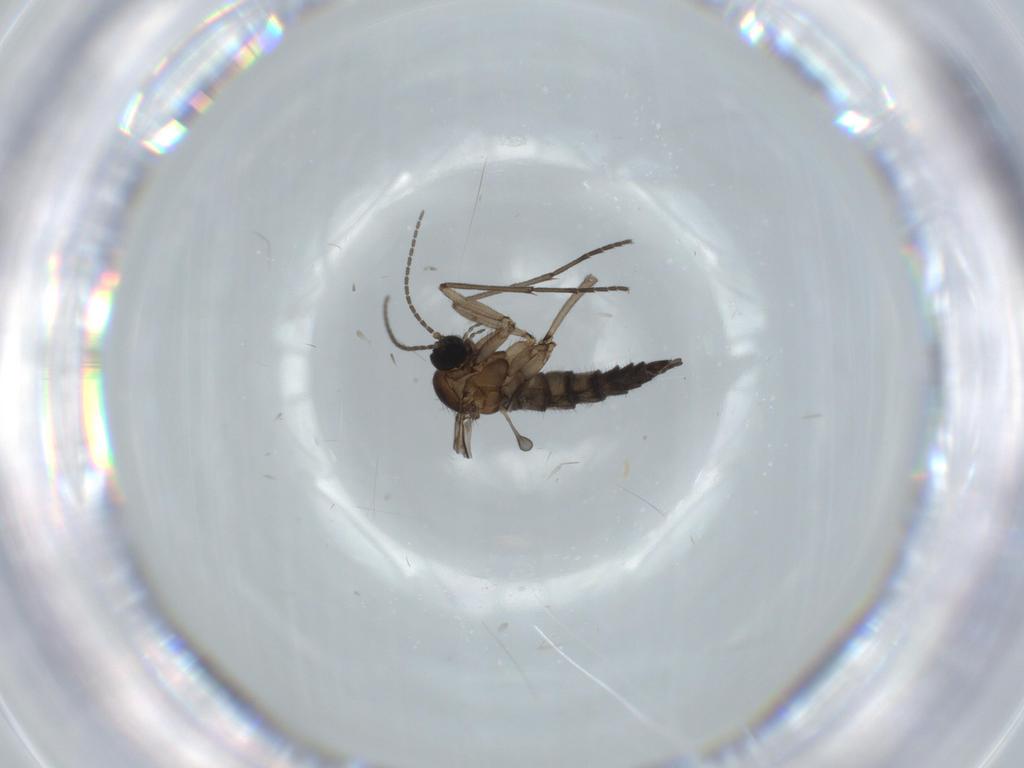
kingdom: Animalia
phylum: Arthropoda
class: Insecta
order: Diptera
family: Sciaridae
